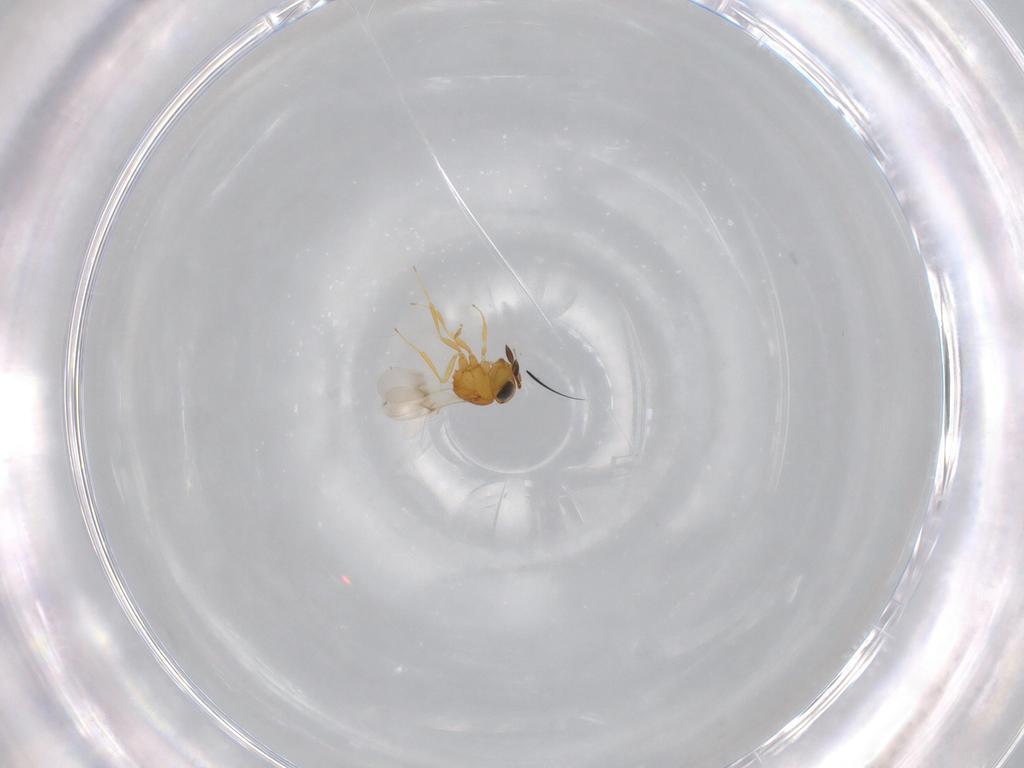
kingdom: Animalia
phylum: Arthropoda
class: Insecta
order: Hymenoptera
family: Scelionidae
